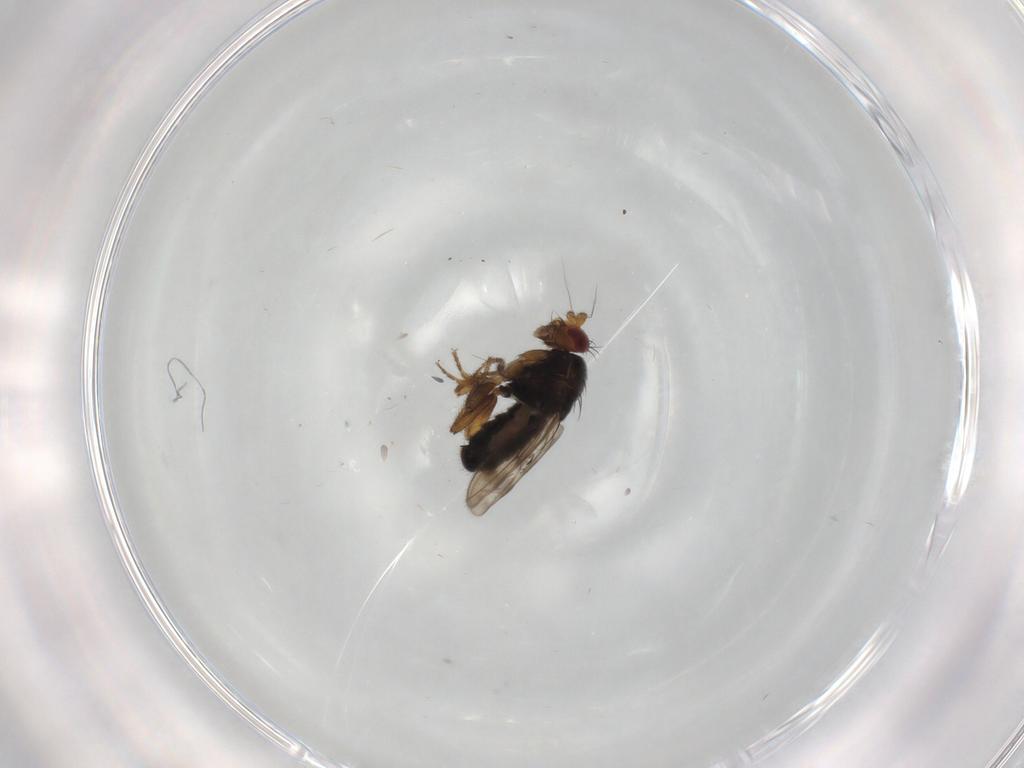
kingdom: Animalia
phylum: Arthropoda
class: Insecta
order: Diptera
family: Sphaeroceridae
